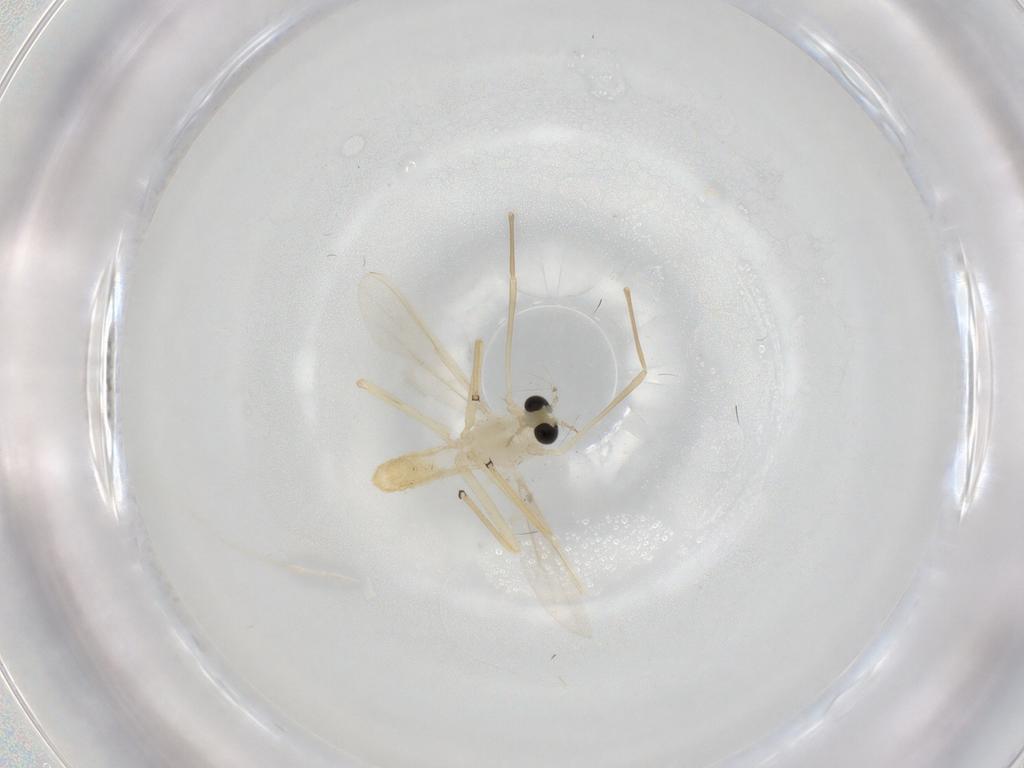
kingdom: Animalia
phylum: Arthropoda
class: Insecta
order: Diptera
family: Chironomidae
